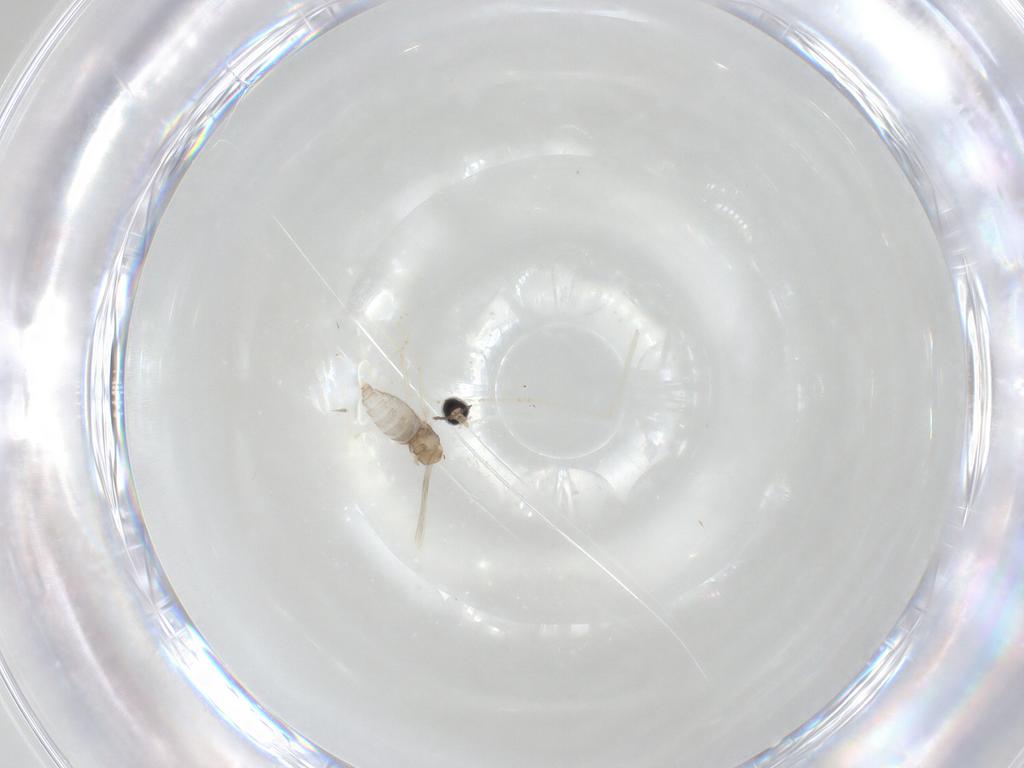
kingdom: Animalia
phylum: Arthropoda
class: Insecta
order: Diptera
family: Cecidomyiidae
